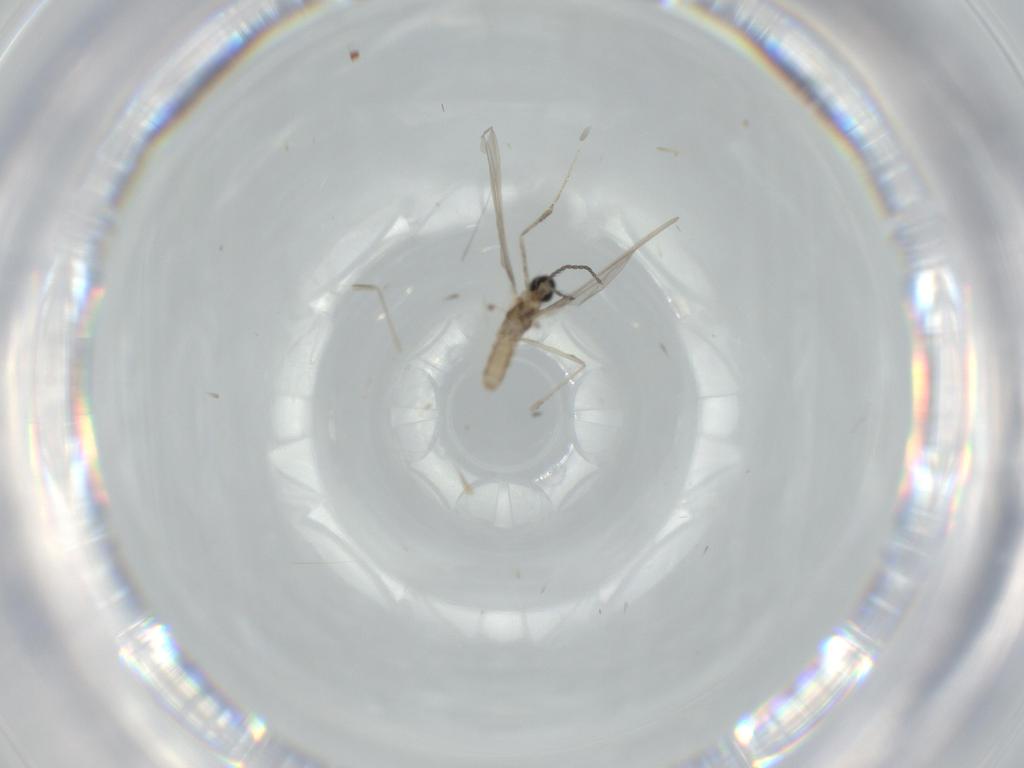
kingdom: Animalia
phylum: Arthropoda
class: Insecta
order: Diptera
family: Cecidomyiidae
